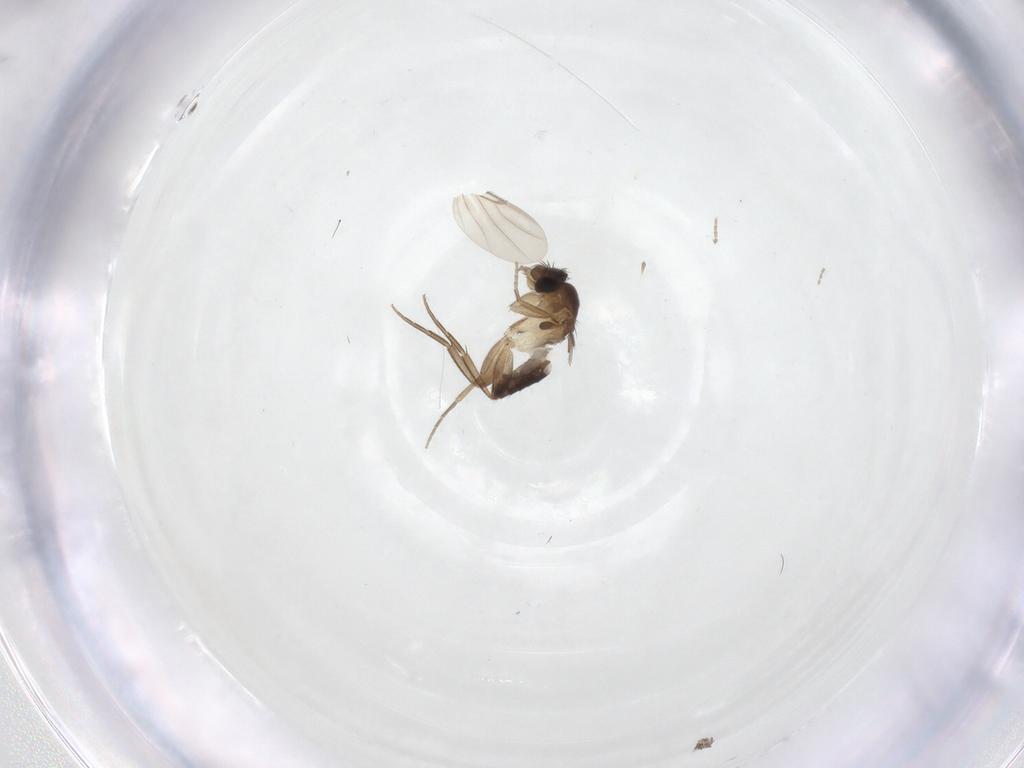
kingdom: Animalia
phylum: Arthropoda
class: Insecta
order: Diptera
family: Phoridae
